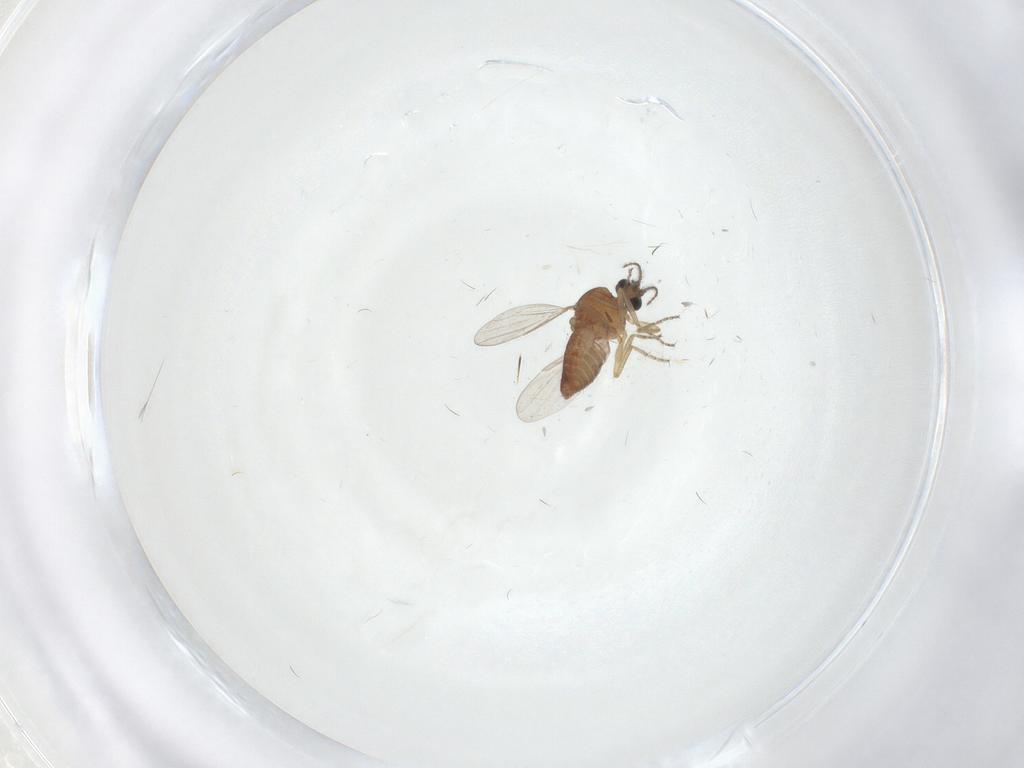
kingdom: Animalia
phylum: Arthropoda
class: Insecta
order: Diptera
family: Ceratopogonidae
